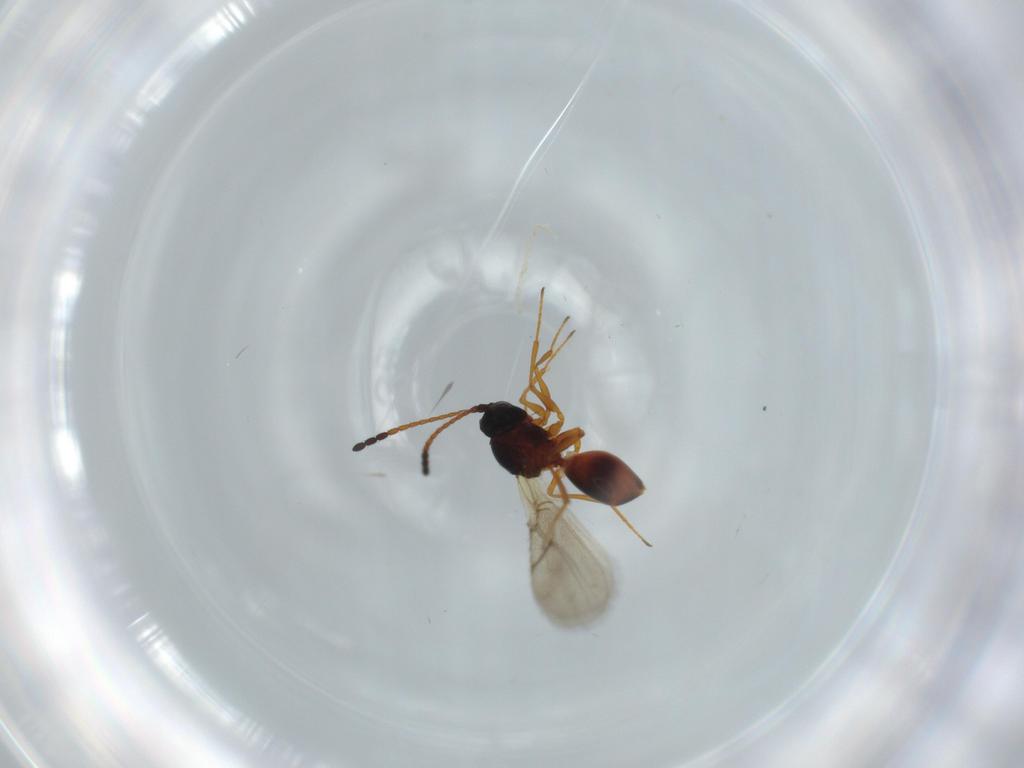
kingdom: Animalia
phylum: Arthropoda
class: Insecta
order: Hymenoptera
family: Figitidae
